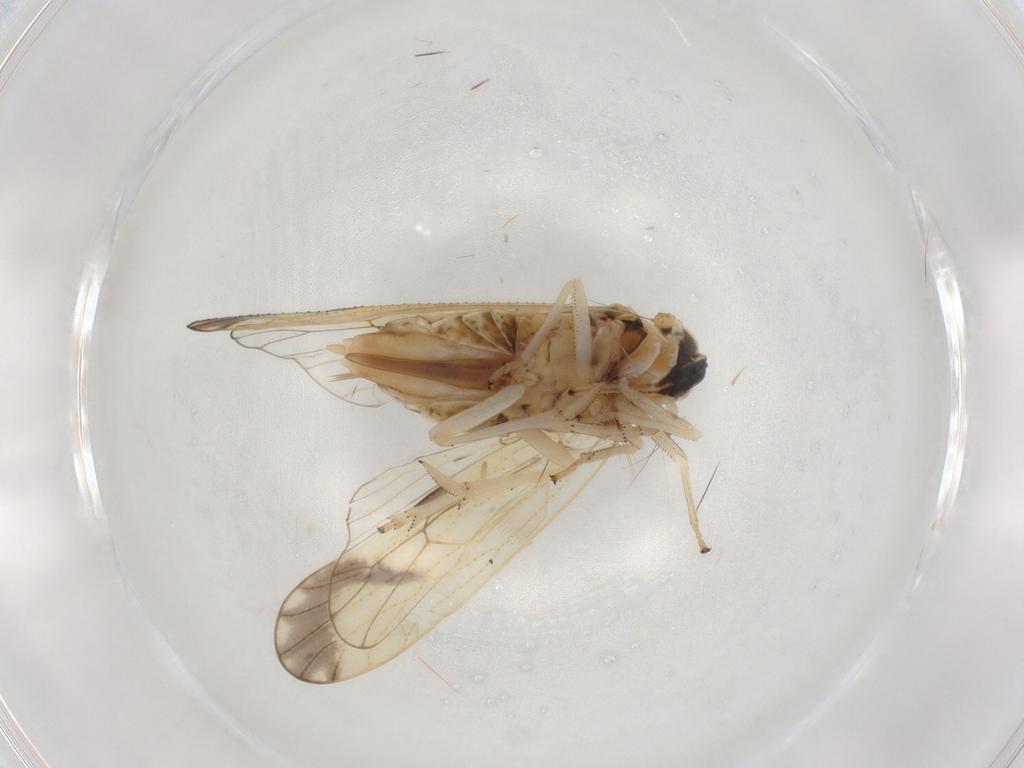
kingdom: Animalia
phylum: Arthropoda
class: Insecta
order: Hemiptera
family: Delphacidae
